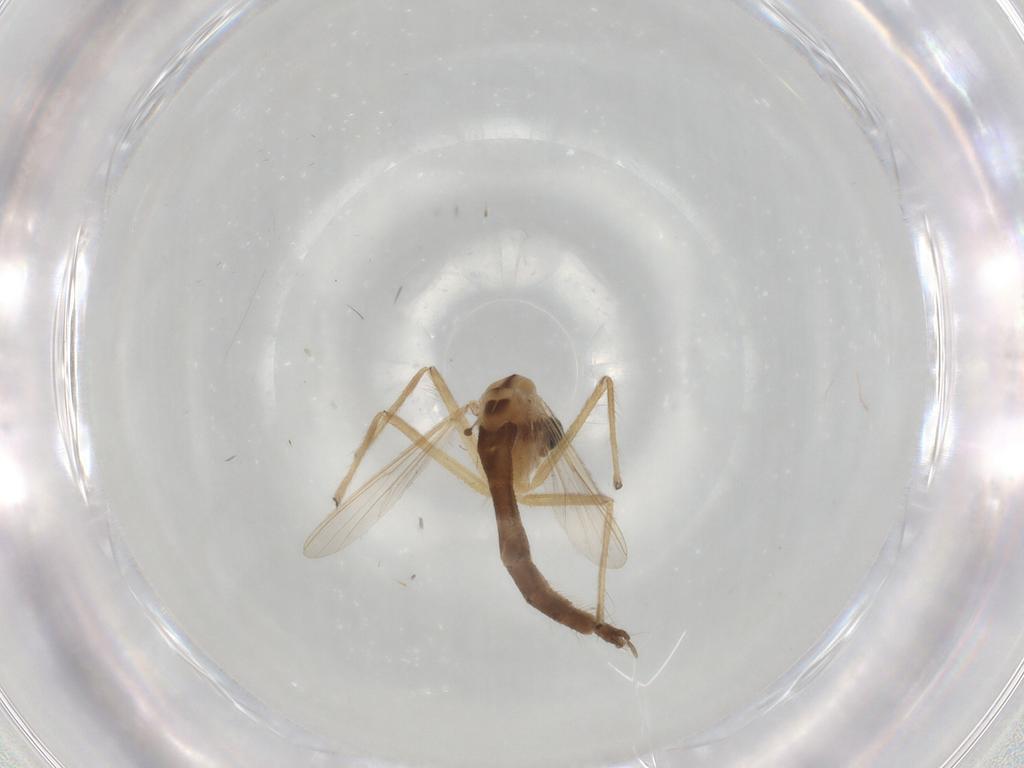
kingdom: Animalia
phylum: Arthropoda
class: Insecta
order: Diptera
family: Chironomidae
